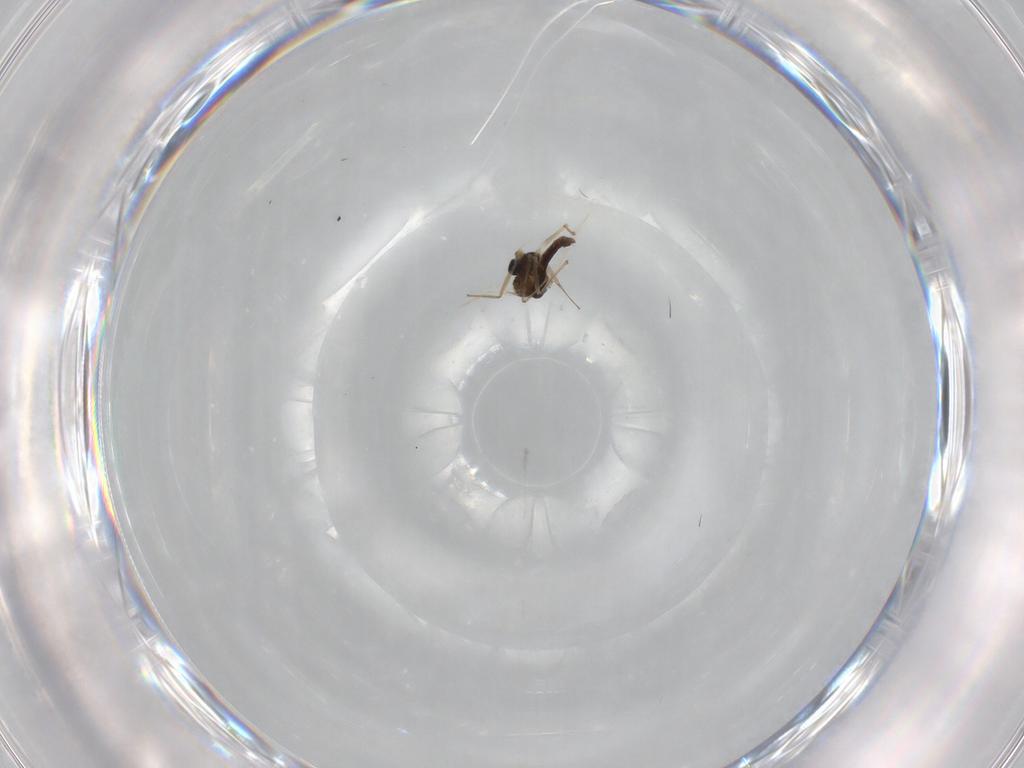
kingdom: Animalia
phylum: Arthropoda
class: Insecta
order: Diptera
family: Chironomidae
